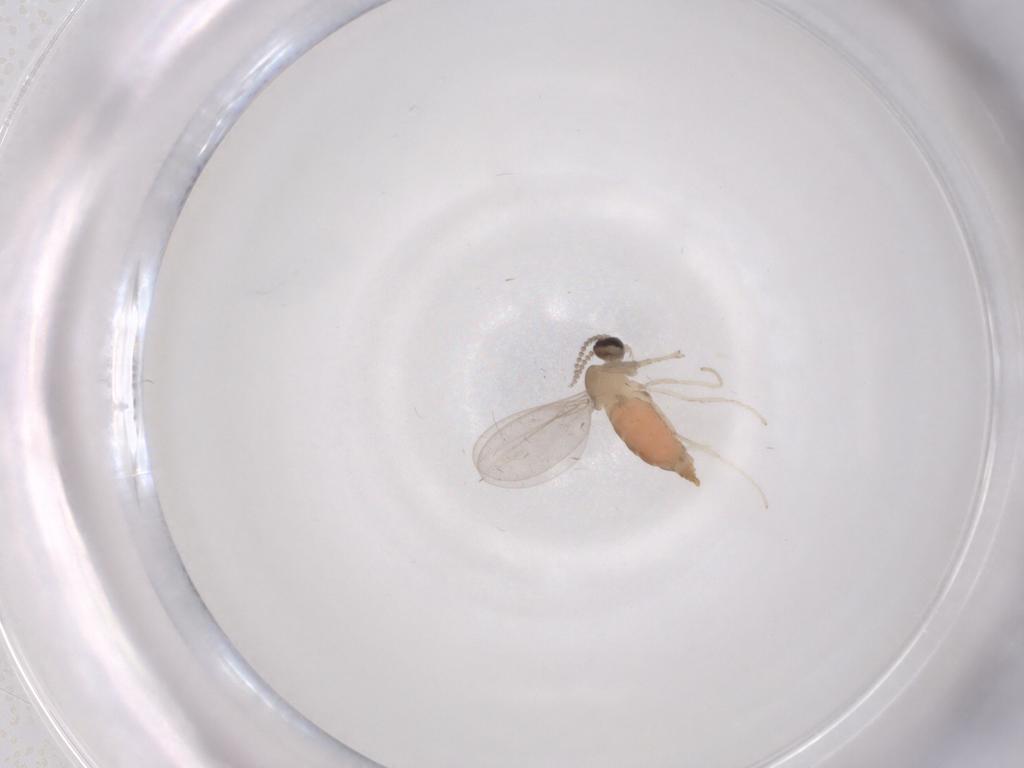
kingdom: Animalia
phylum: Arthropoda
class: Insecta
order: Diptera
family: Cecidomyiidae
